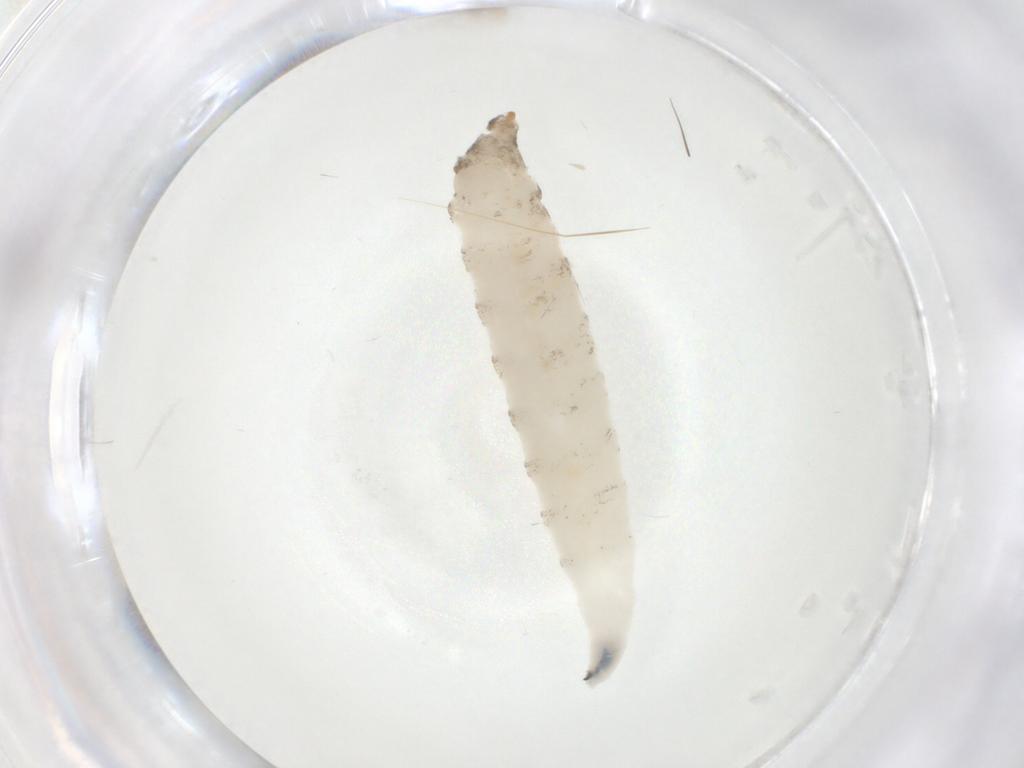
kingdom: Animalia
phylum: Arthropoda
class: Insecta
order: Diptera
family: Drosophilidae
